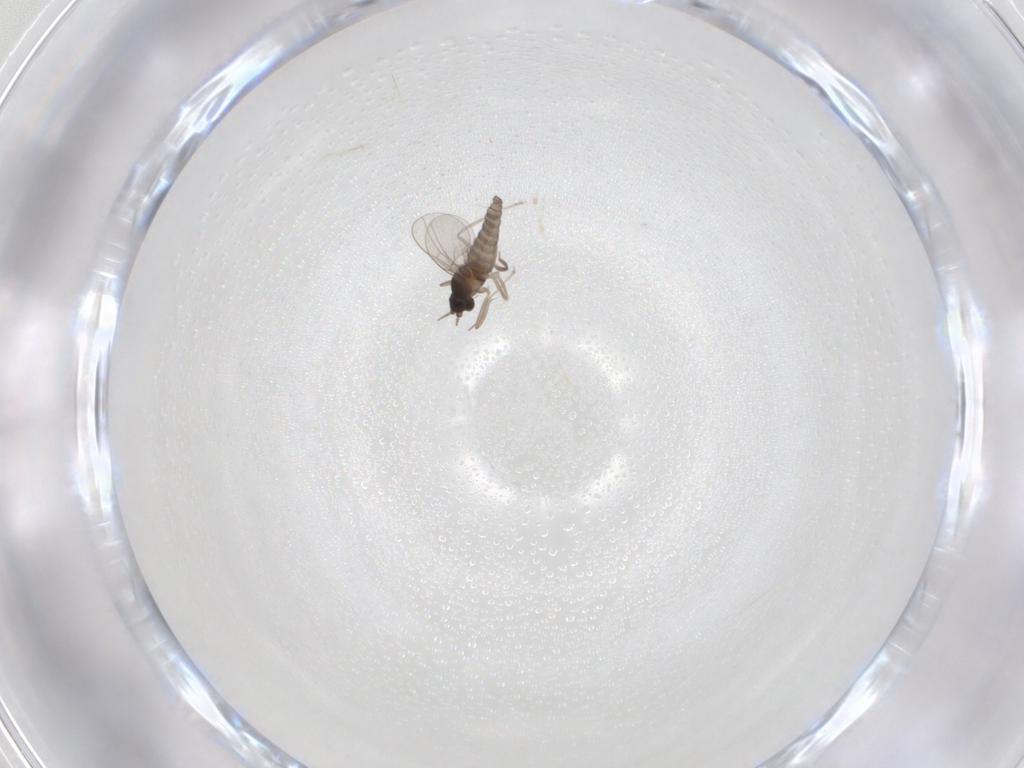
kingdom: Animalia
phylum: Arthropoda
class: Insecta
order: Diptera
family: Cecidomyiidae
